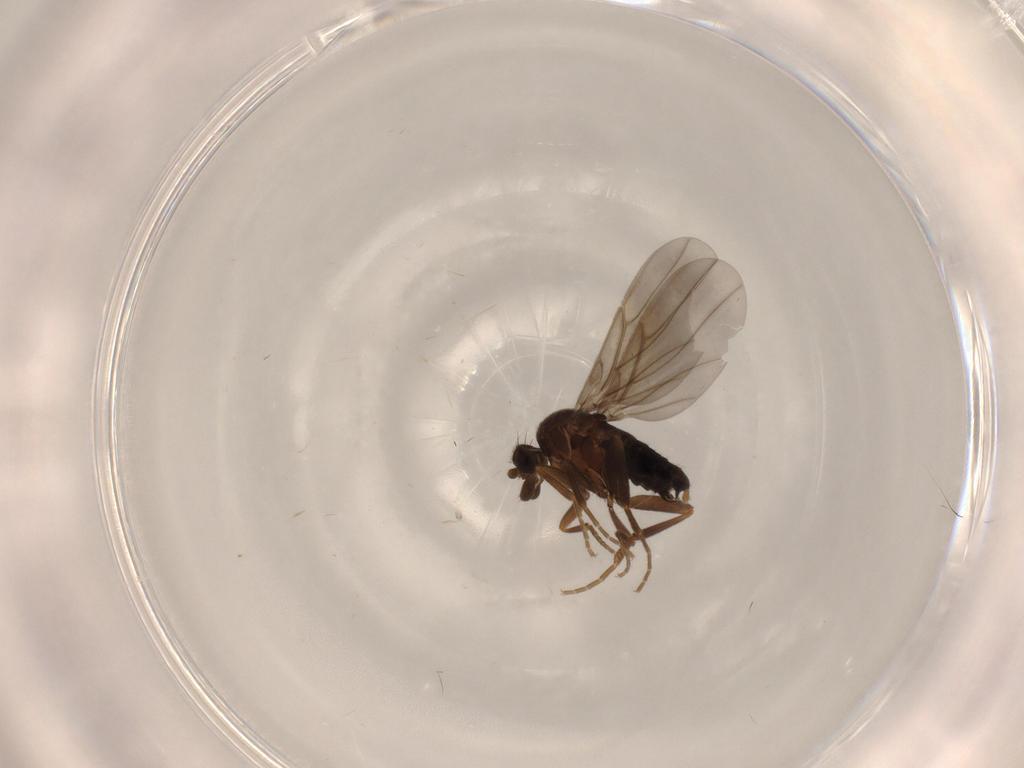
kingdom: Animalia
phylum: Arthropoda
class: Insecta
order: Diptera
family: Phoridae
